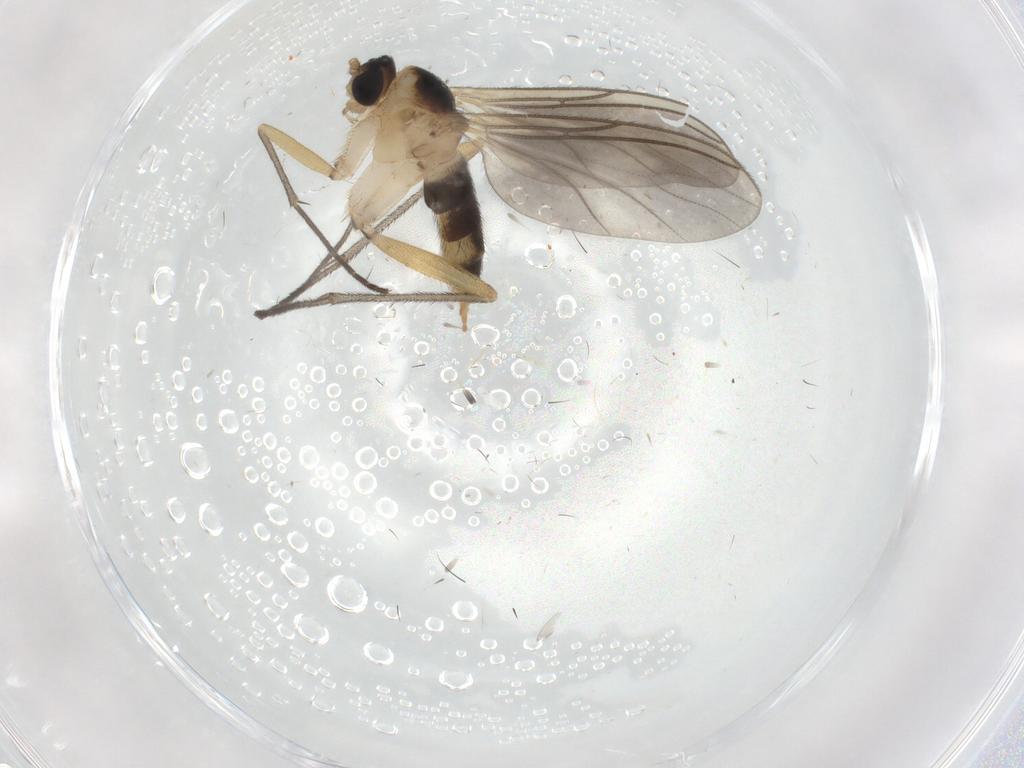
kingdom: Animalia
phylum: Arthropoda
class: Insecta
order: Diptera
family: Sciaridae
